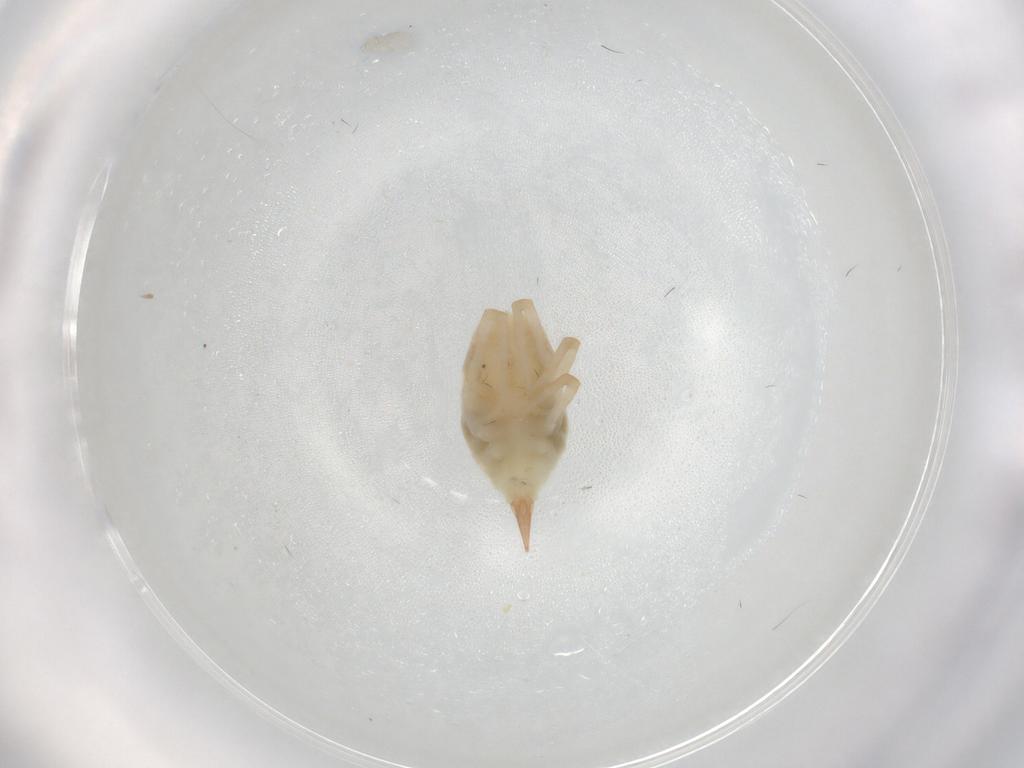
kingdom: Animalia
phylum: Arthropoda
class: Arachnida
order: Trombidiformes
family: Bdellidae
